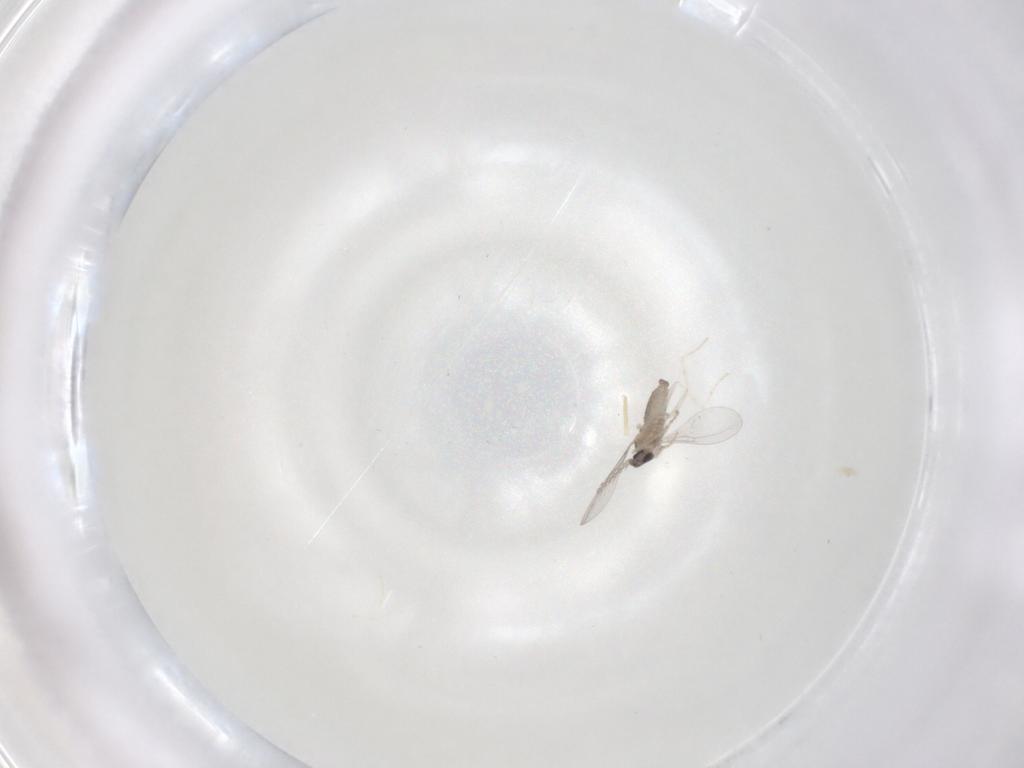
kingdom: Animalia
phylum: Arthropoda
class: Insecta
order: Diptera
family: Cecidomyiidae
